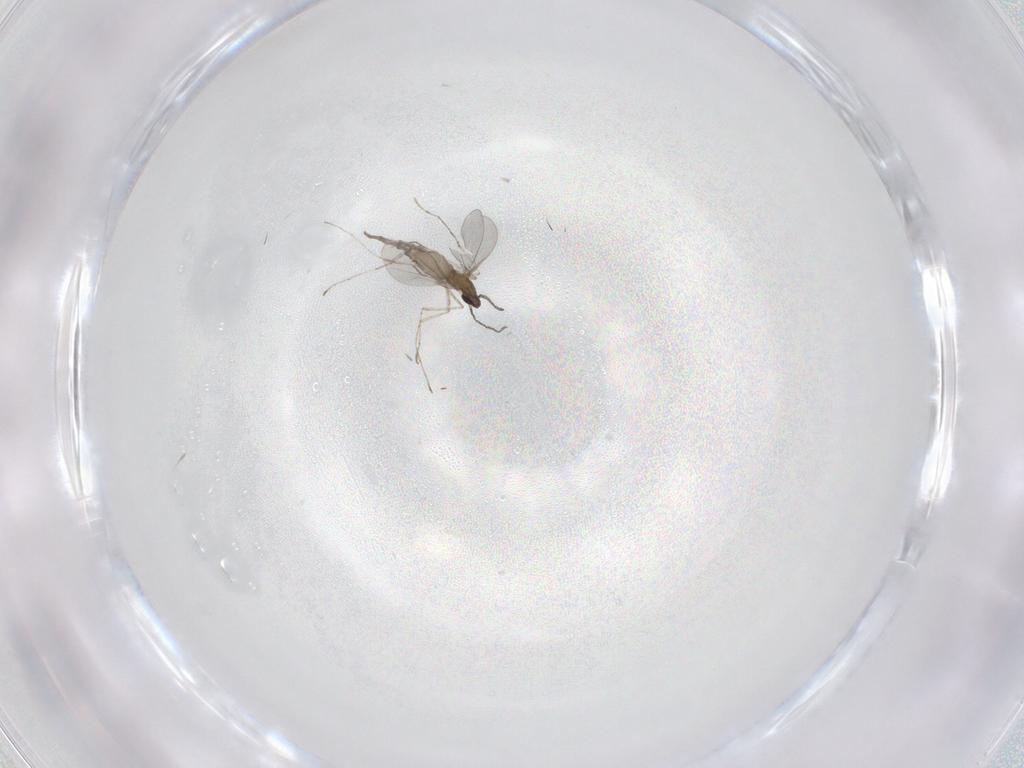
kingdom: Animalia
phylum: Arthropoda
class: Insecta
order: Diptera
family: Cecidomyiidae
